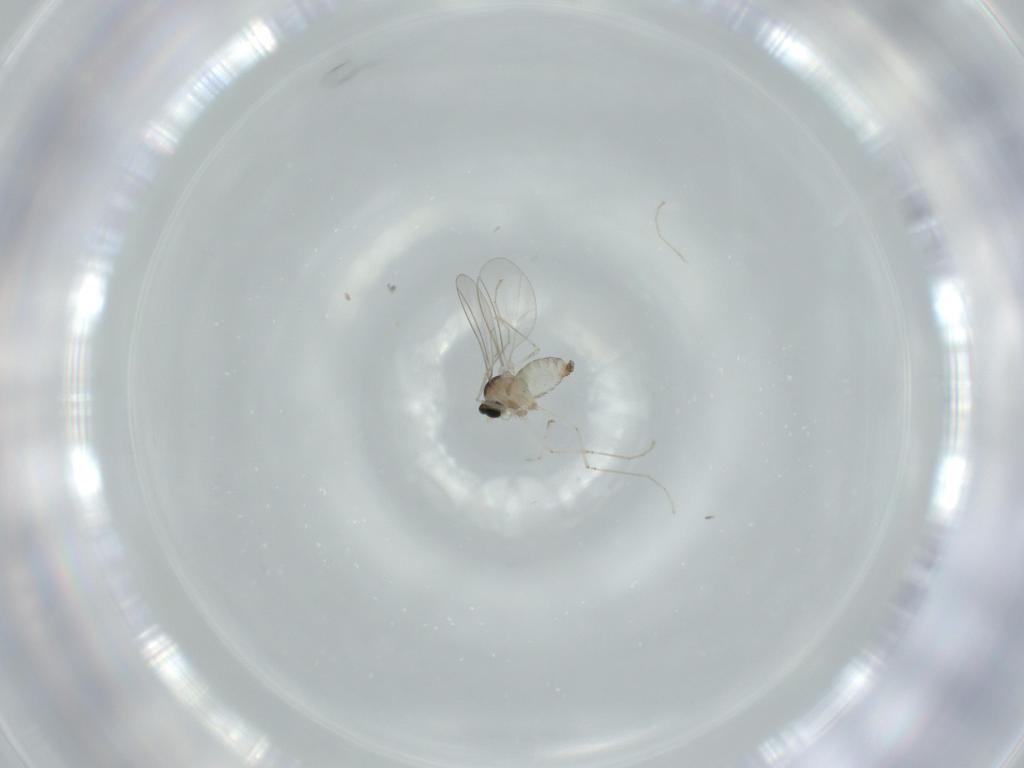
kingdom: Animalia
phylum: Arthropoda
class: Insecta
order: Diptera
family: Cecidomyiidae
